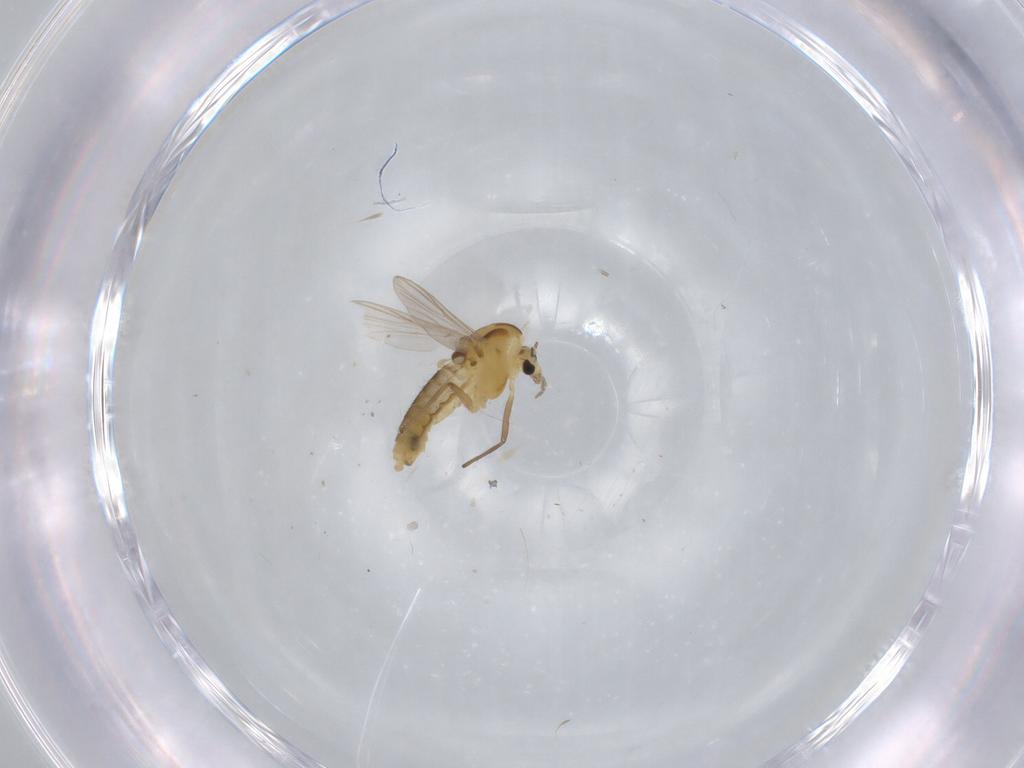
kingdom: Animalia
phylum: Arthropoda
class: Insecta
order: Diptera
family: Chironomidae
